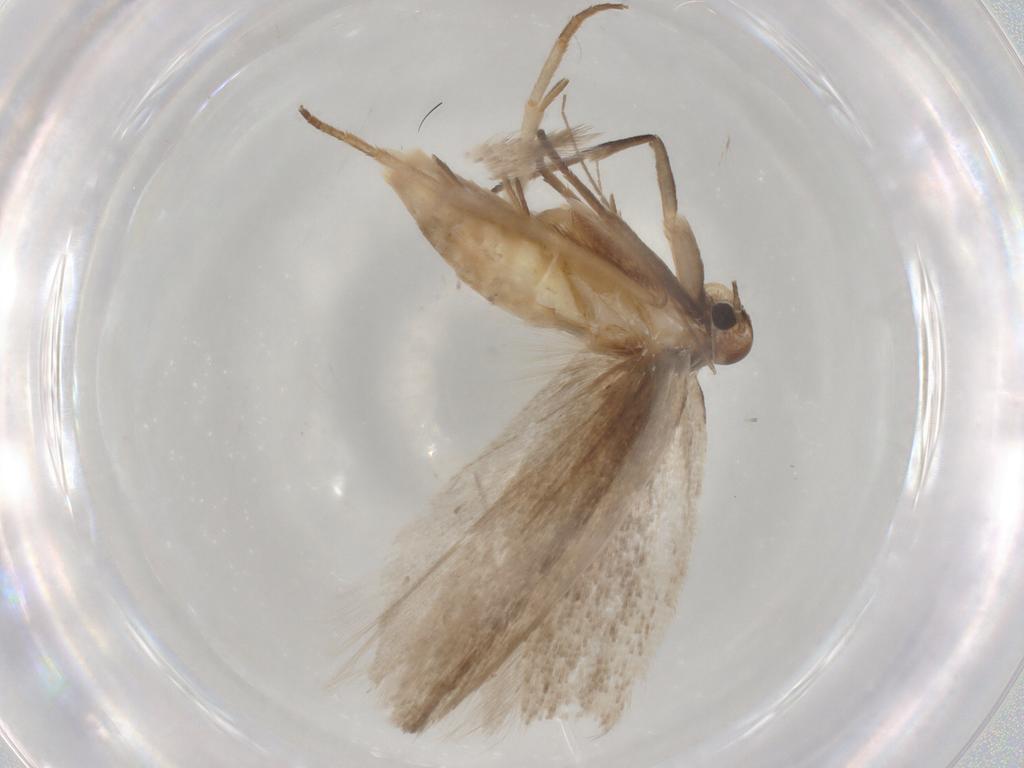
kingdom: Animalia
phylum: Arthropoda
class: Insecta
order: Lepidoptera
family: Gelechiidae
